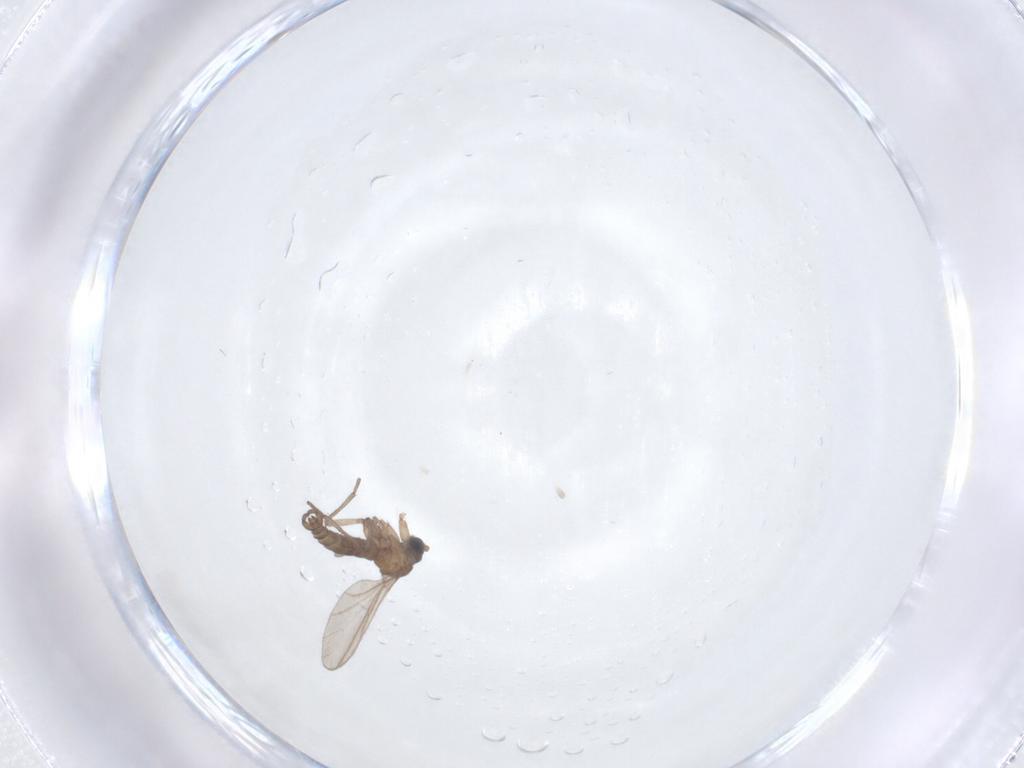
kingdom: Animalia
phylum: Arthropoda
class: Insecta
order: Diptera
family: Sciaridae
